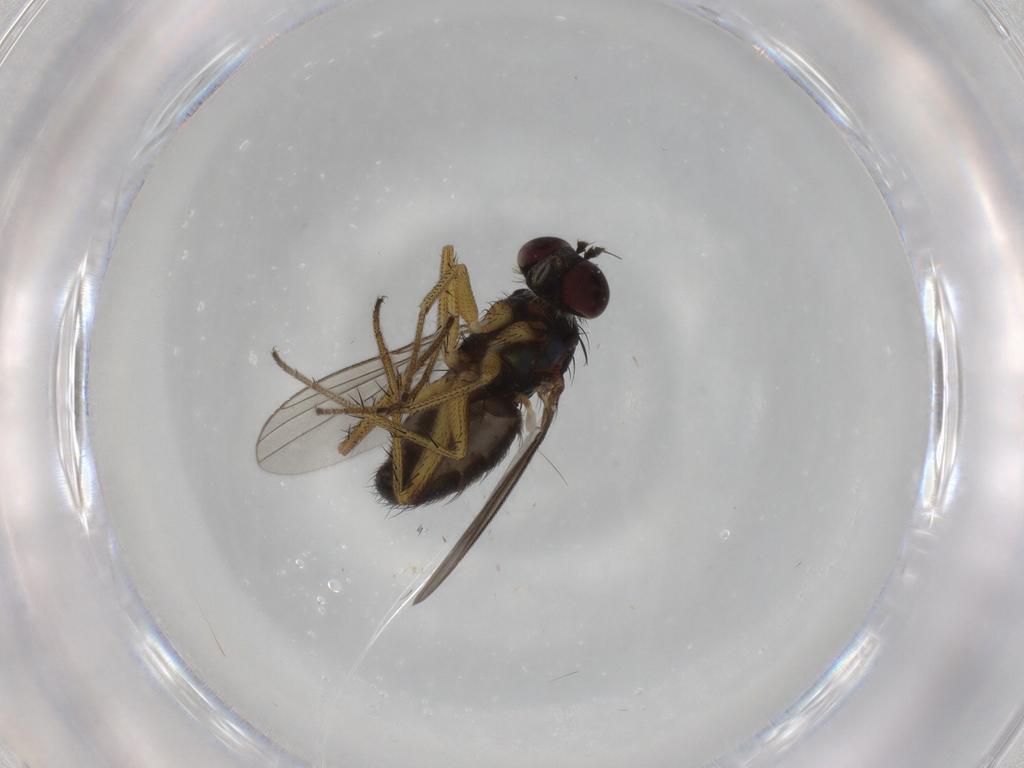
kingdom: Animalia
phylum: Arthropoda
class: Insecta
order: Diptera
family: Dolichopodidae
